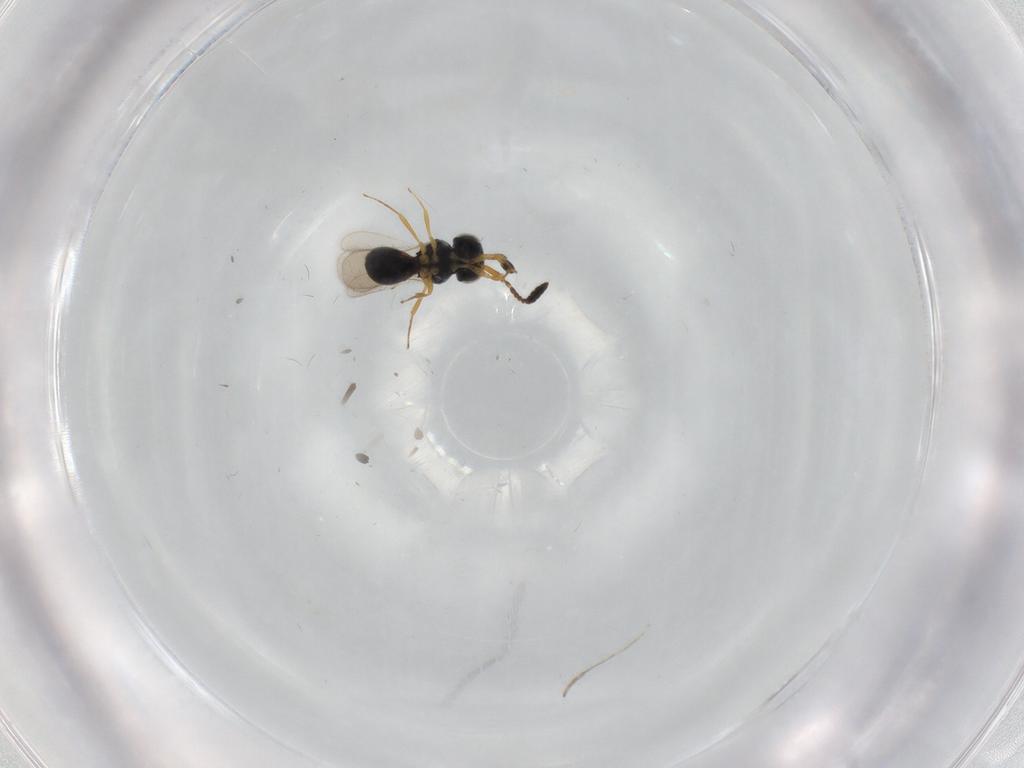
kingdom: Animalia
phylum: Arthropoda
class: Insecta
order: Hymenoptera
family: Scelionidae
